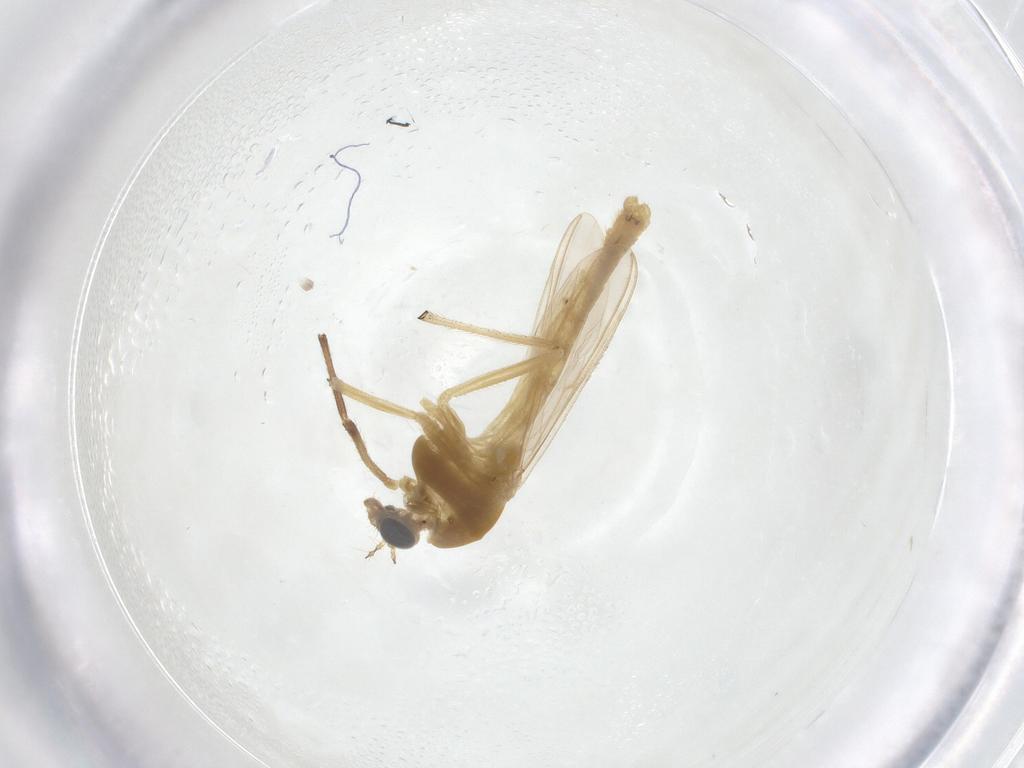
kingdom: Animalia
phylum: Arthropoda
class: Insecta
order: Diptera
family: Chironomidae
